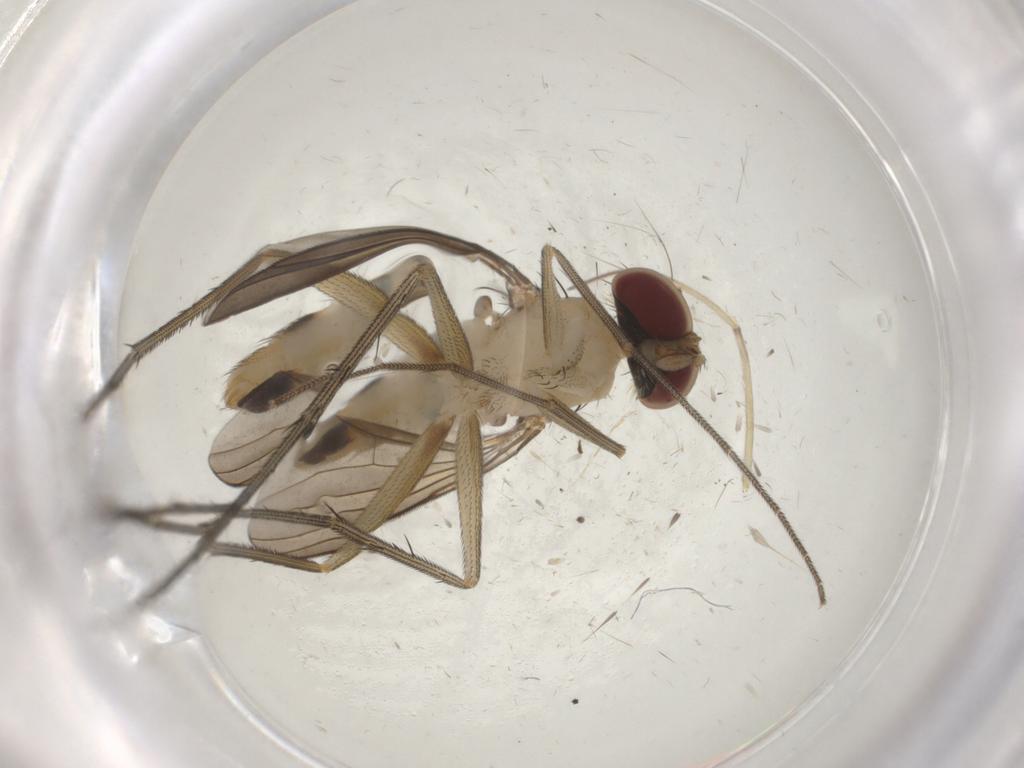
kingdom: Animalia
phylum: Arthropoda
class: Insecta
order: Diptera
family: Dolichopodidae
